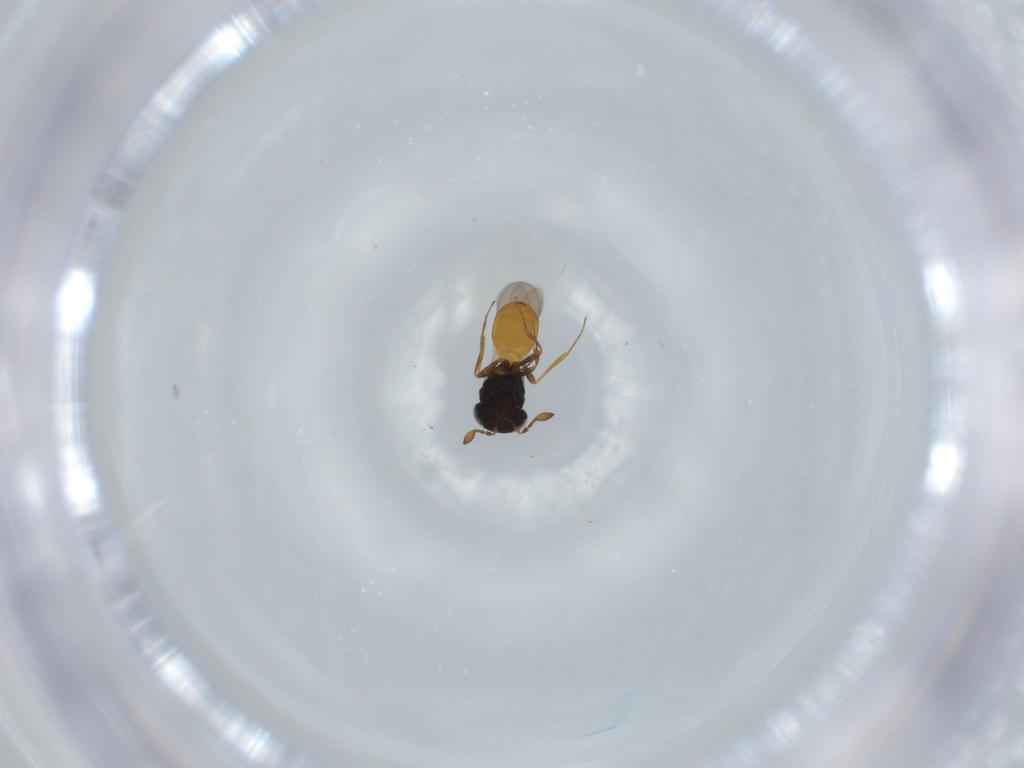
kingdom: Animalia
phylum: Arthropoda
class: Insecta
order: Hymenoptera
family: Scelionidae
